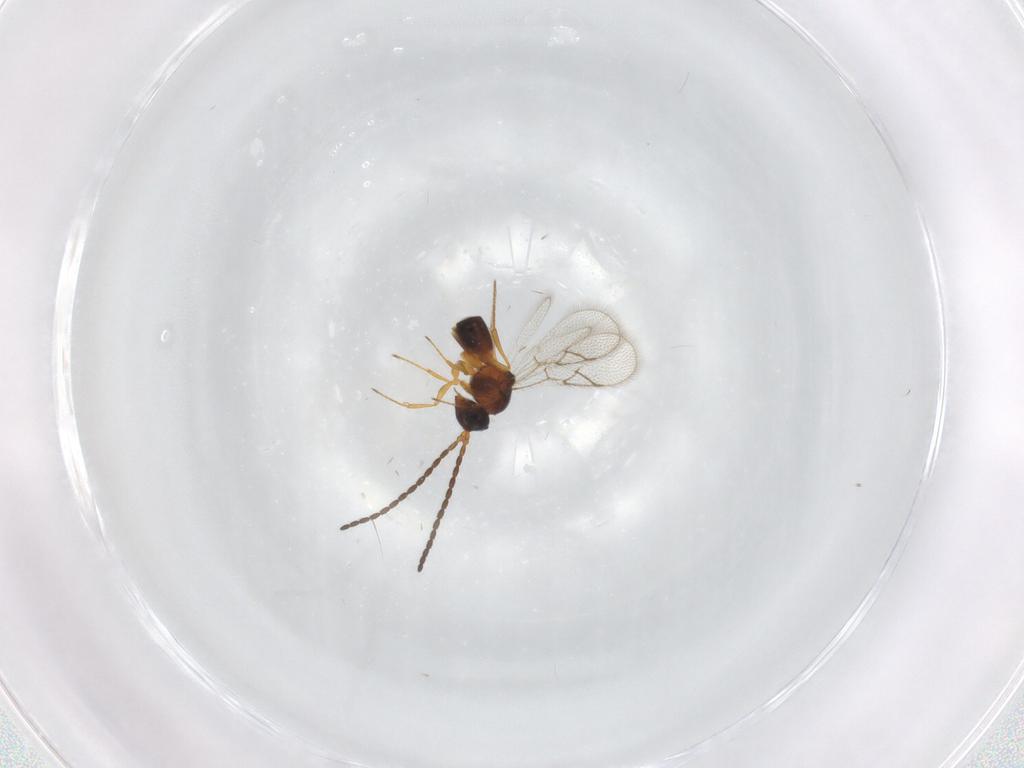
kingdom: Animalia
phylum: Arthropoda
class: Insecta
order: Hymenoptera
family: Figitidae
